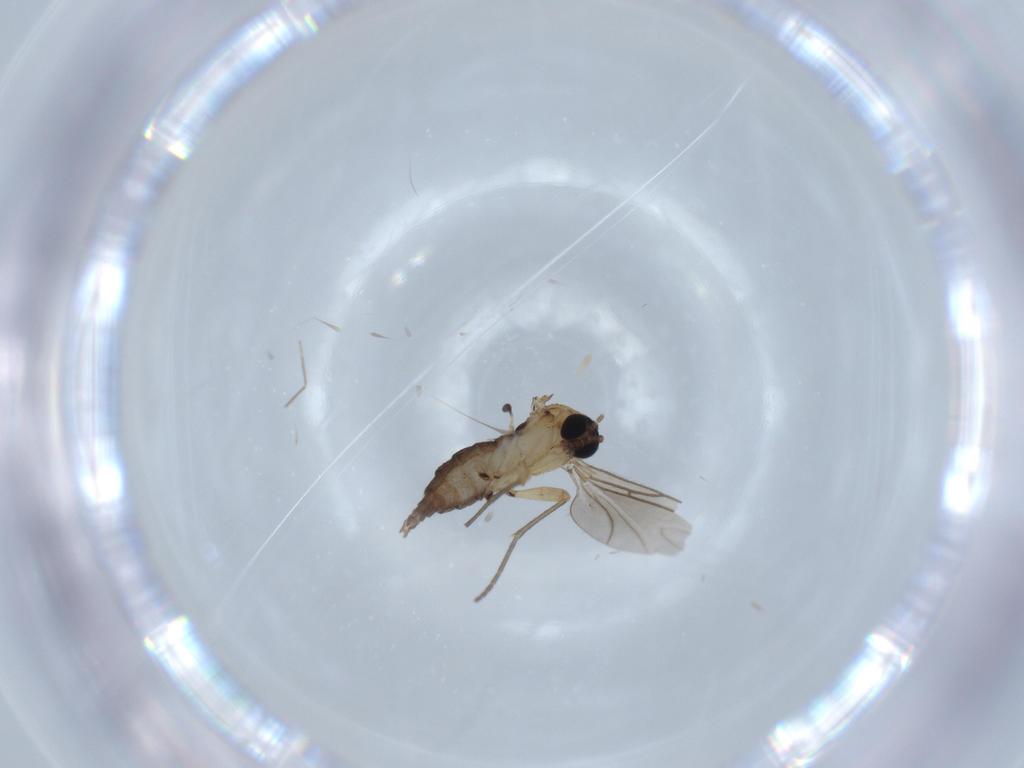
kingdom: Animalia
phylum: Arthropoda
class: Insecta
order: Diptera
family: Sciaridae
